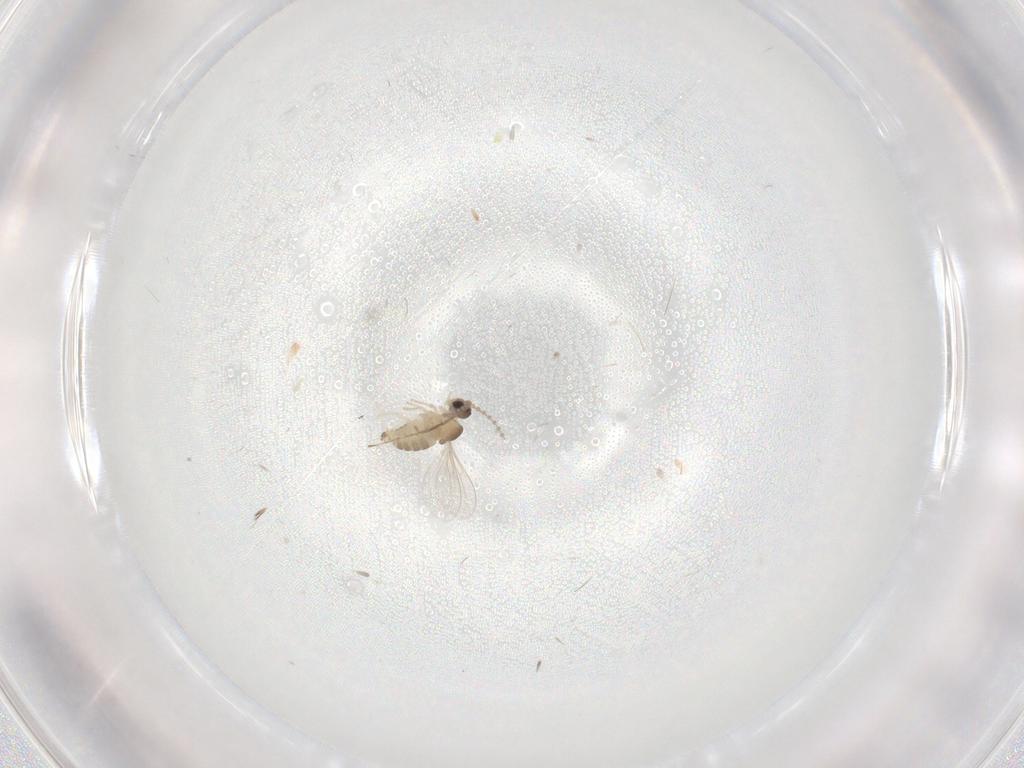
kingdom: Animalia
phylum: Arthropoda
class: Insecta
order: Diptera
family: Cecidomyiidae
